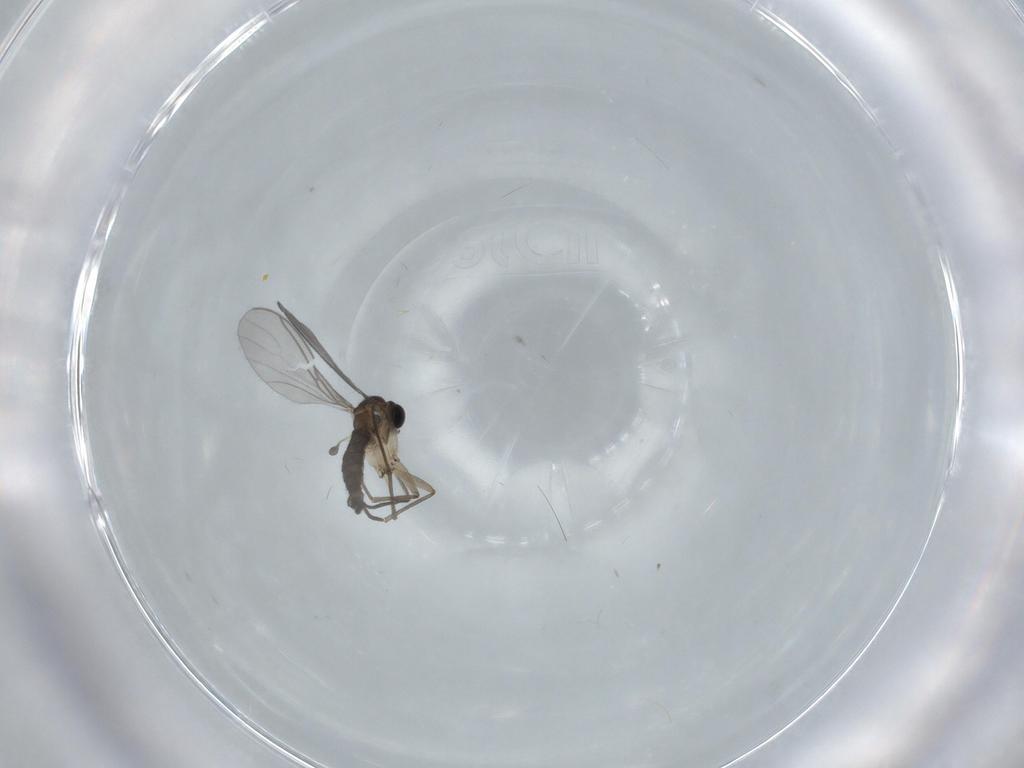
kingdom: Animalia
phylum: Arthropoda
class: Insecta
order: Diptera
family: Sciaridae
